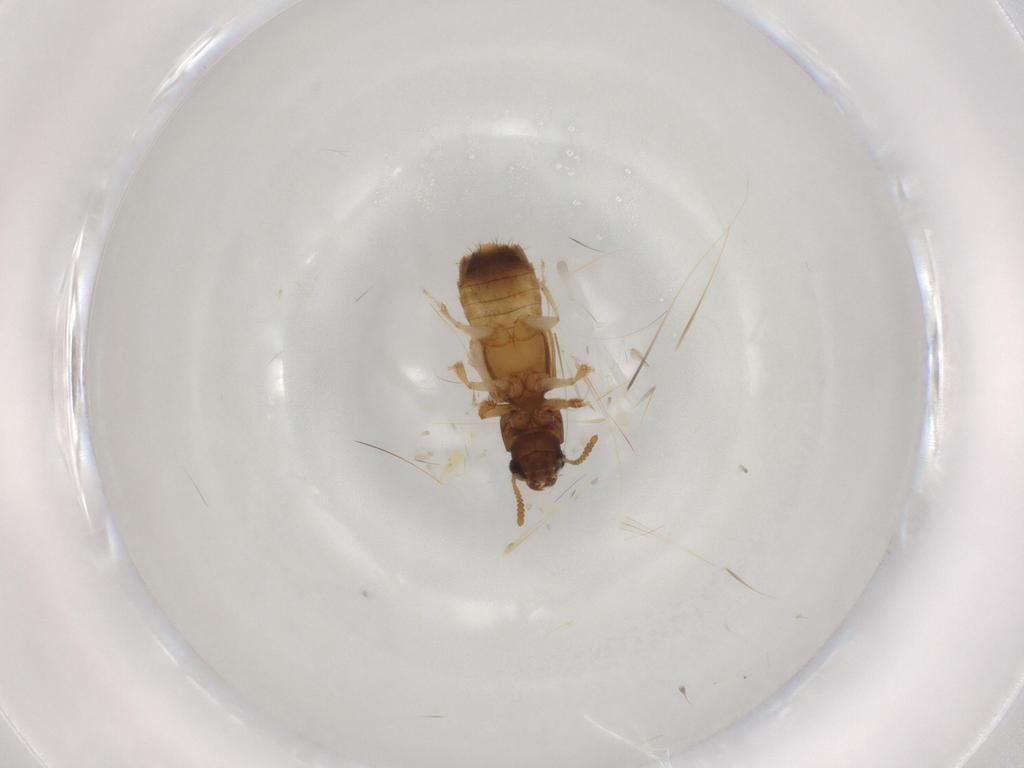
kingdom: Animalia
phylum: Arthropoda
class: Insecta
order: Coleoptera
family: Staphylinidae
